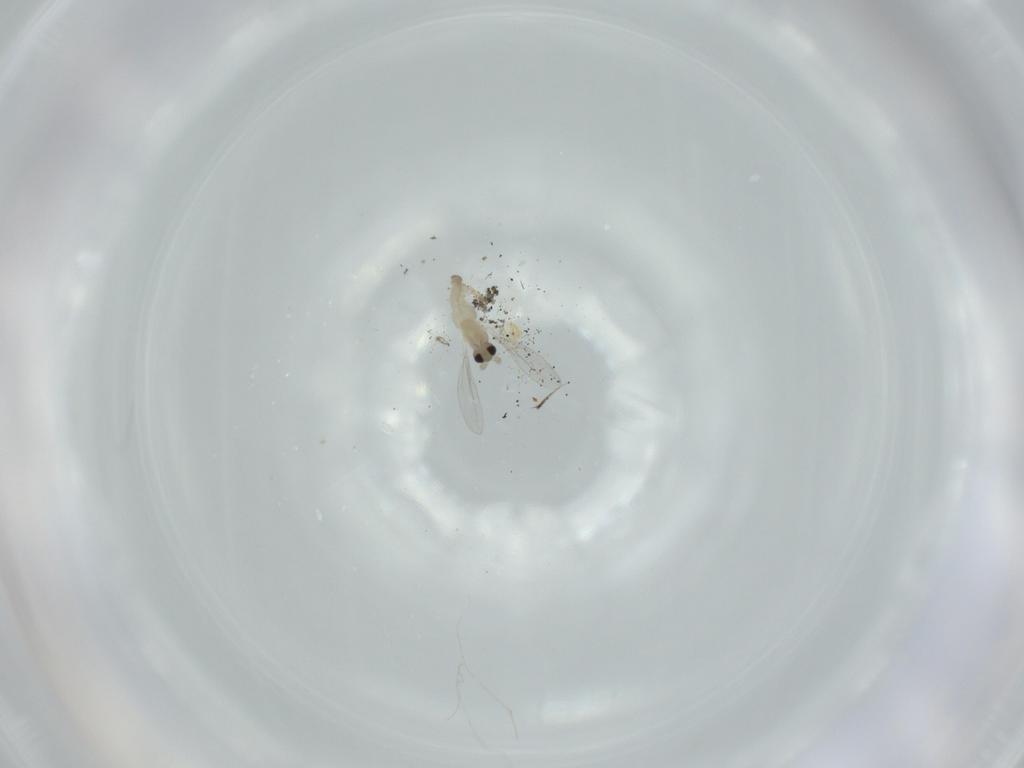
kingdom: Animalia
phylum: Arthropoda
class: Insecta
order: Diptera
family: Cecidomyiidae
